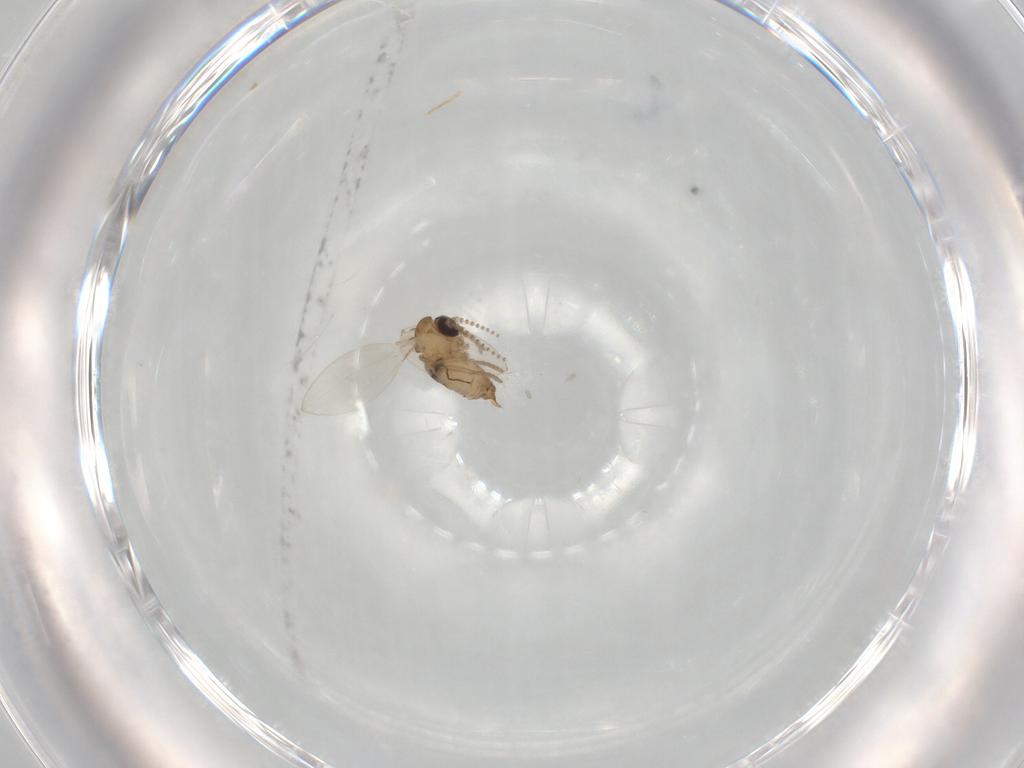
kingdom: Animalia
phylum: Arthropoda
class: Insecta
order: Diptera
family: Psychodidae
